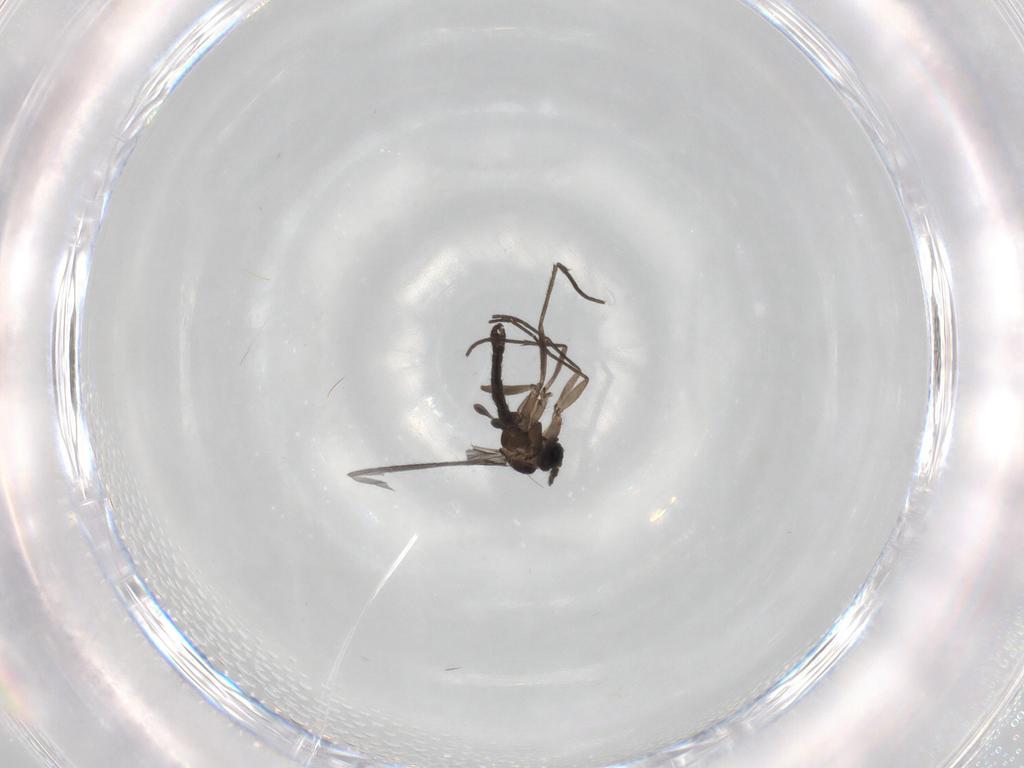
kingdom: Animalia
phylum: Arthropoda
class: Insecta
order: Diptera
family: Sciaridae
